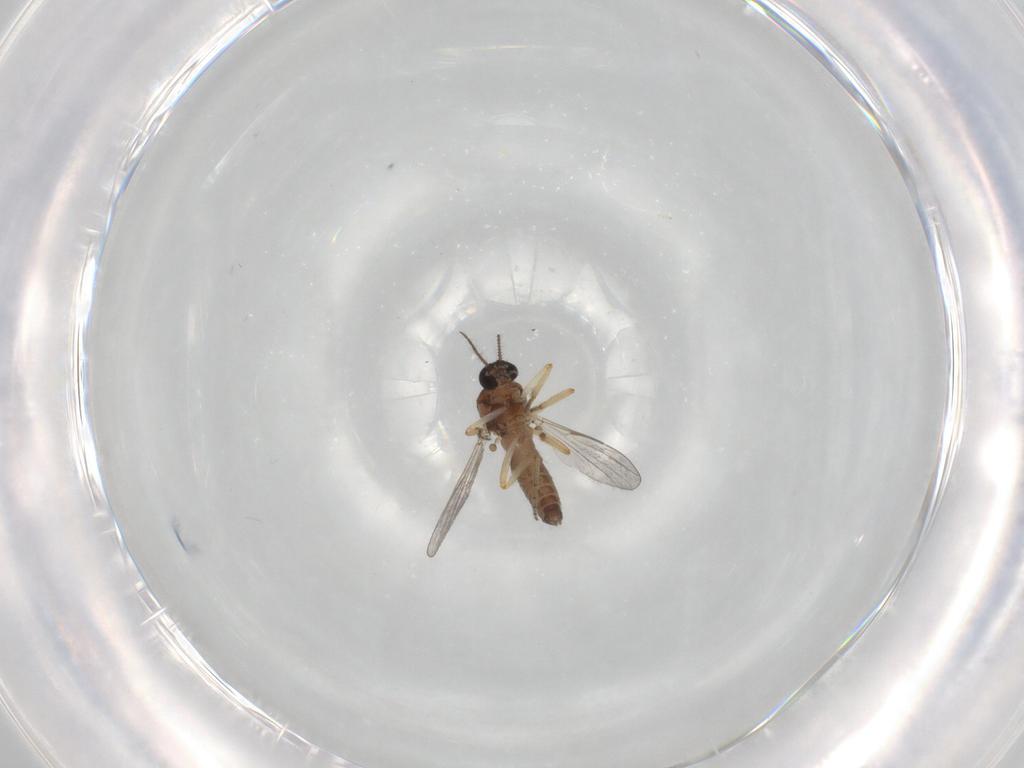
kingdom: Animalia
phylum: Arthropoda
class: Insecta
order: Diptera
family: Ceratopogonidae
